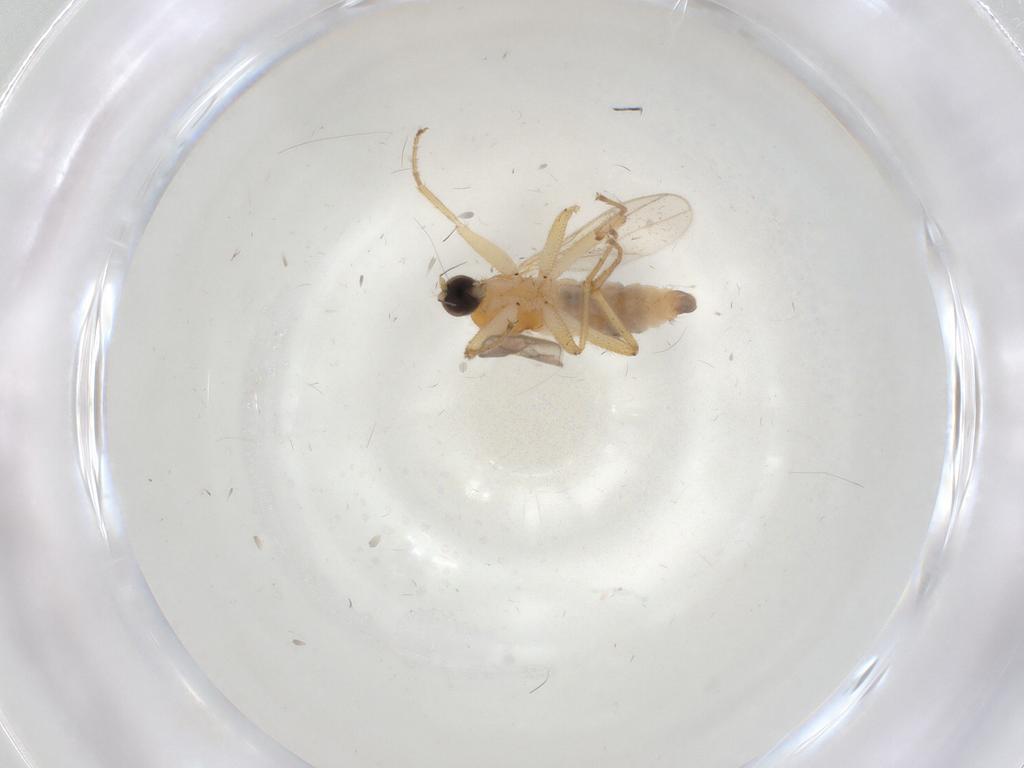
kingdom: Animalia
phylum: Arthropoda
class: Insecta
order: Diptera
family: Hybotidae
